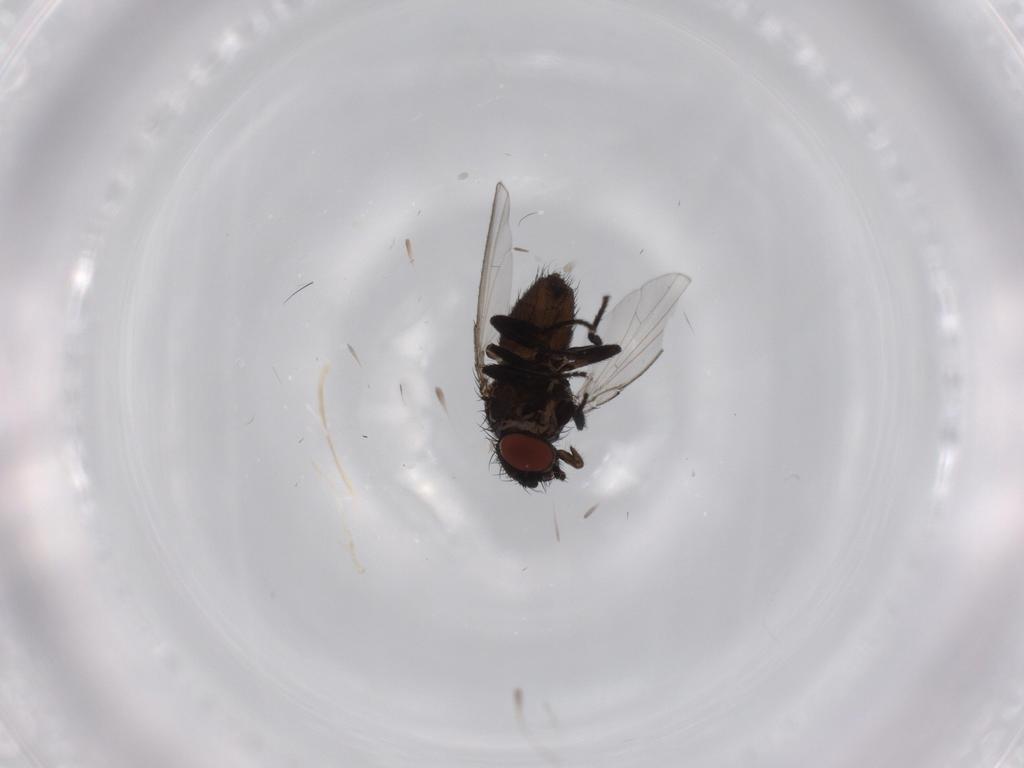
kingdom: Animalia
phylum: Arthropoda
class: Insecta
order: Diptera
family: Milichiidae
